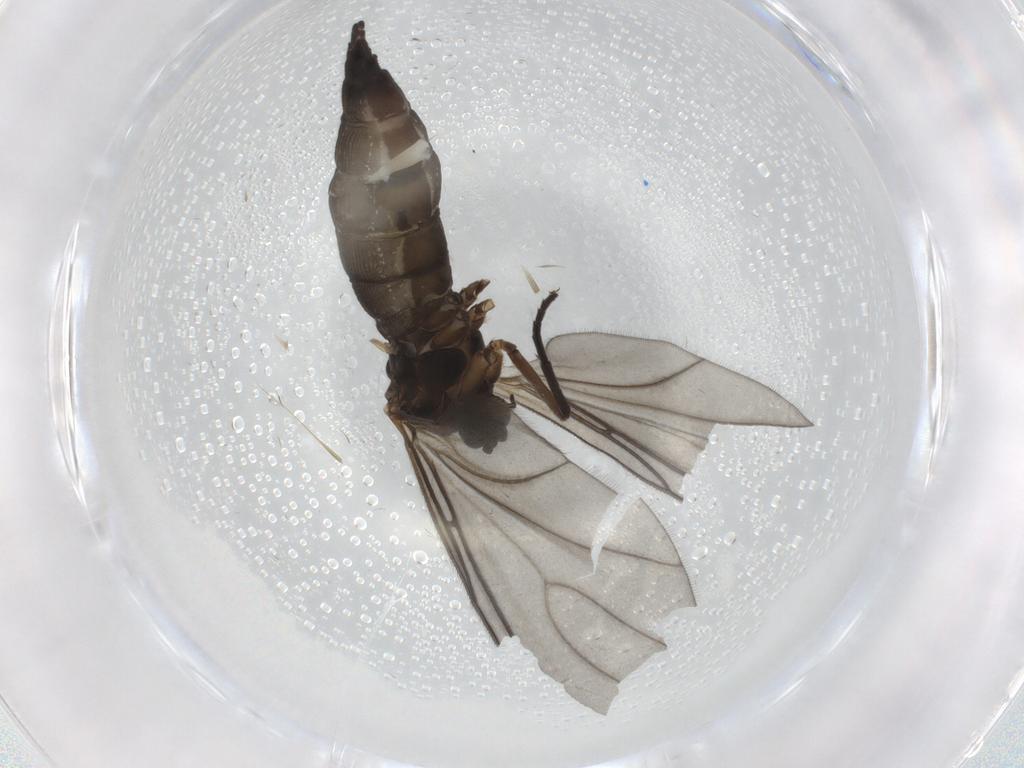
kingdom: Animalia
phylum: Arthropoda
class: Insecta
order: Diptera
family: Sciaridae
